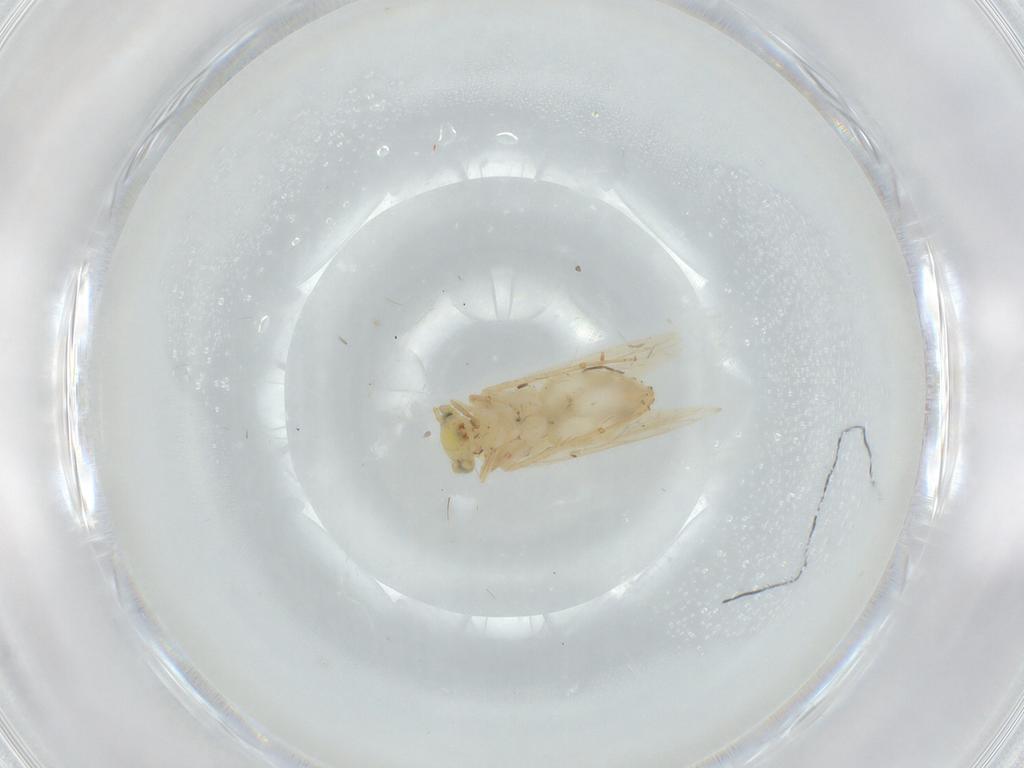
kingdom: Animalia
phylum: Arthropoda
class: Insecta
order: Psocodea
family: Lepidopsocidae
